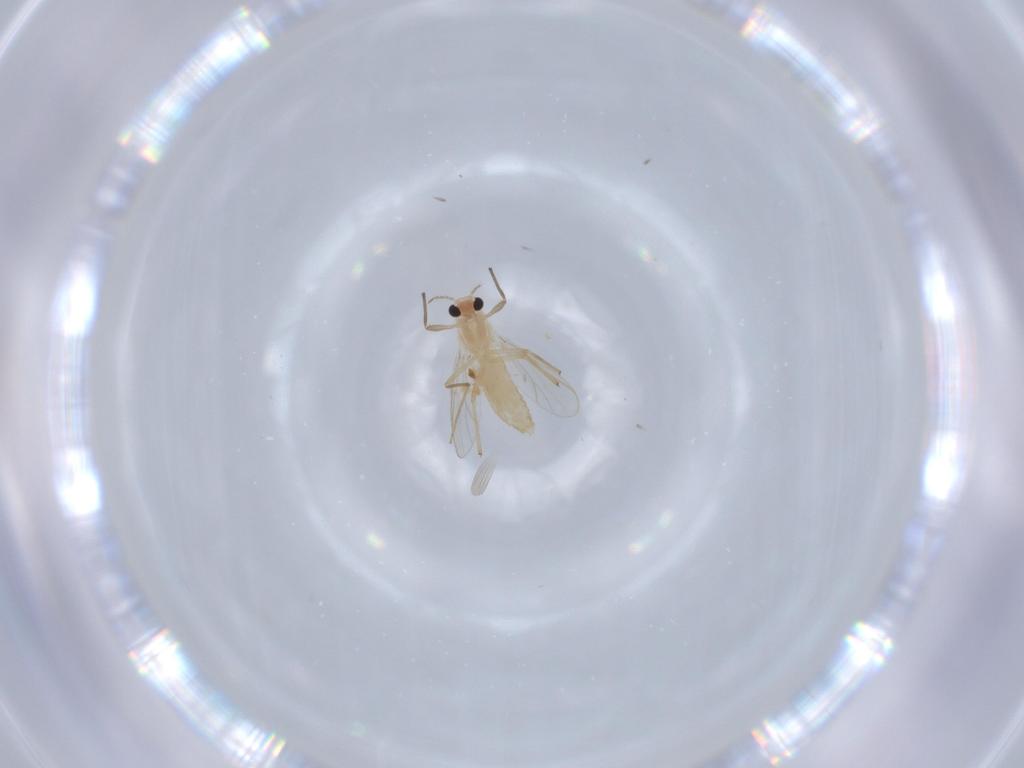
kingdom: Animalia
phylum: Arthropoda
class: Insecta
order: Diptera
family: Chironomidae
